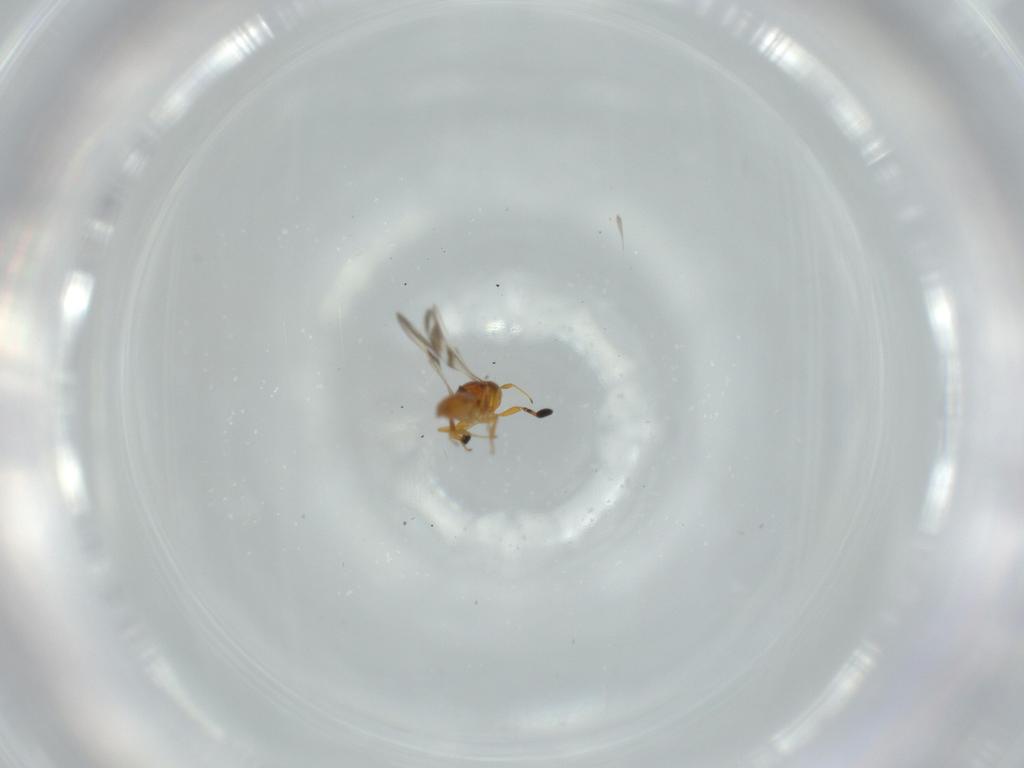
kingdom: Animalia
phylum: Arthropoda
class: Insecta
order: Hymenoptera
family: Scelionidae
